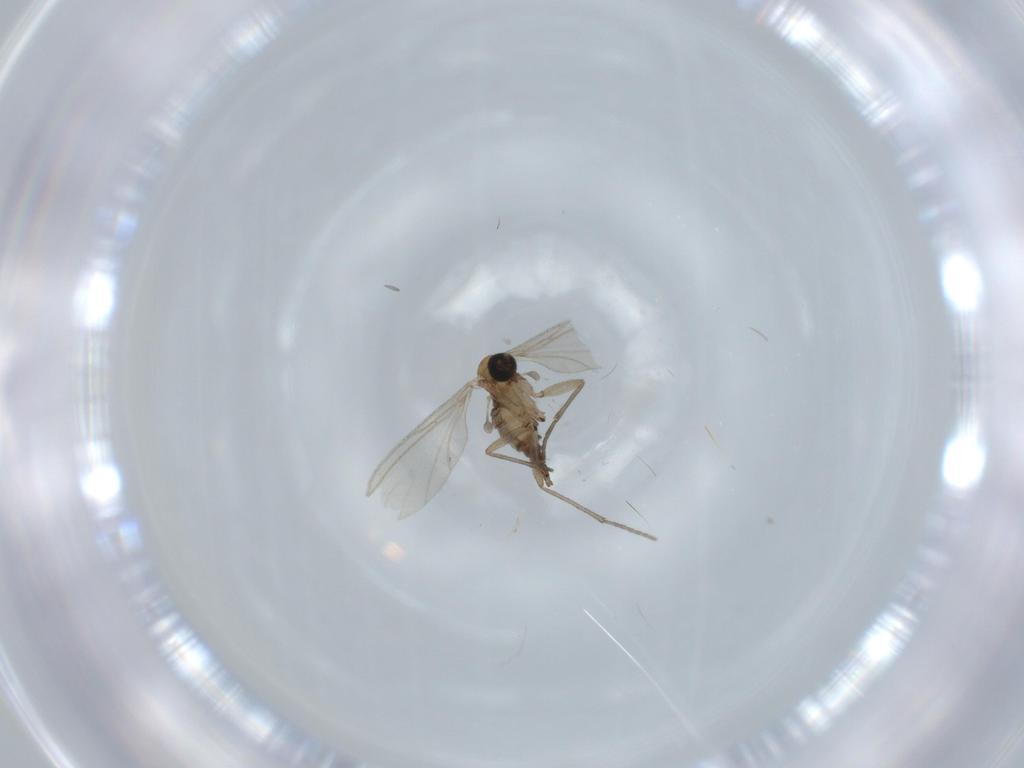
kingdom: Animalia
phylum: Arthropoda
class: Insecta
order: Diptera
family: Sciaridae
